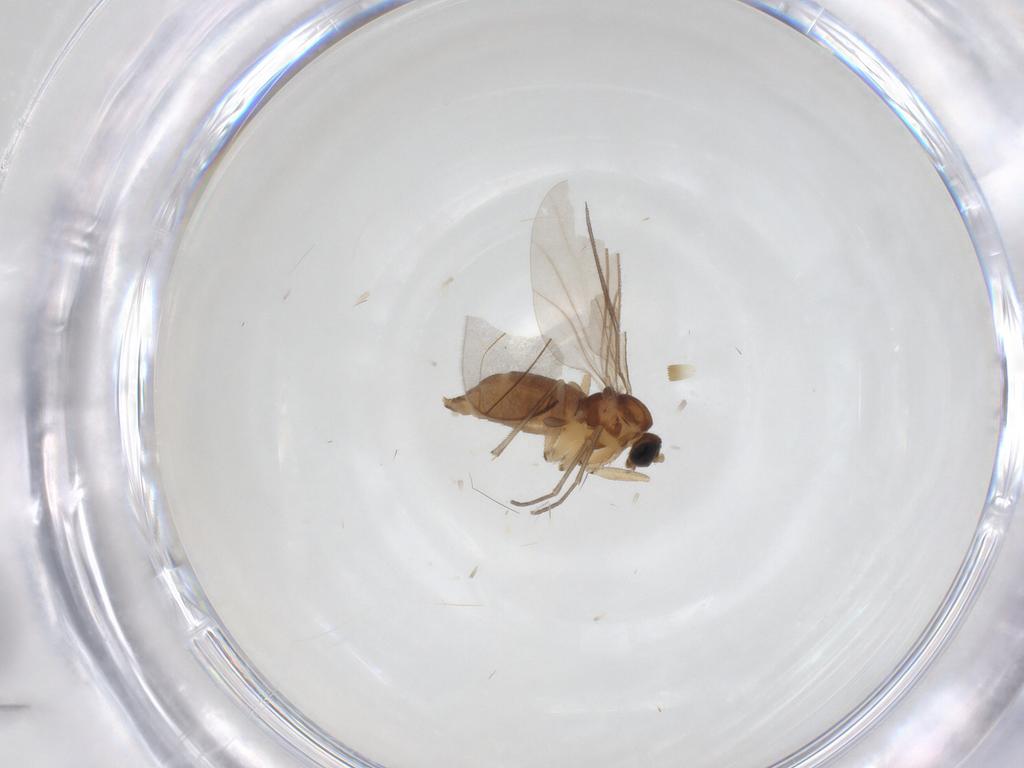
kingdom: Animalia
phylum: Arthropoda
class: Insecta
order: Diptera
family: Sciaridae
